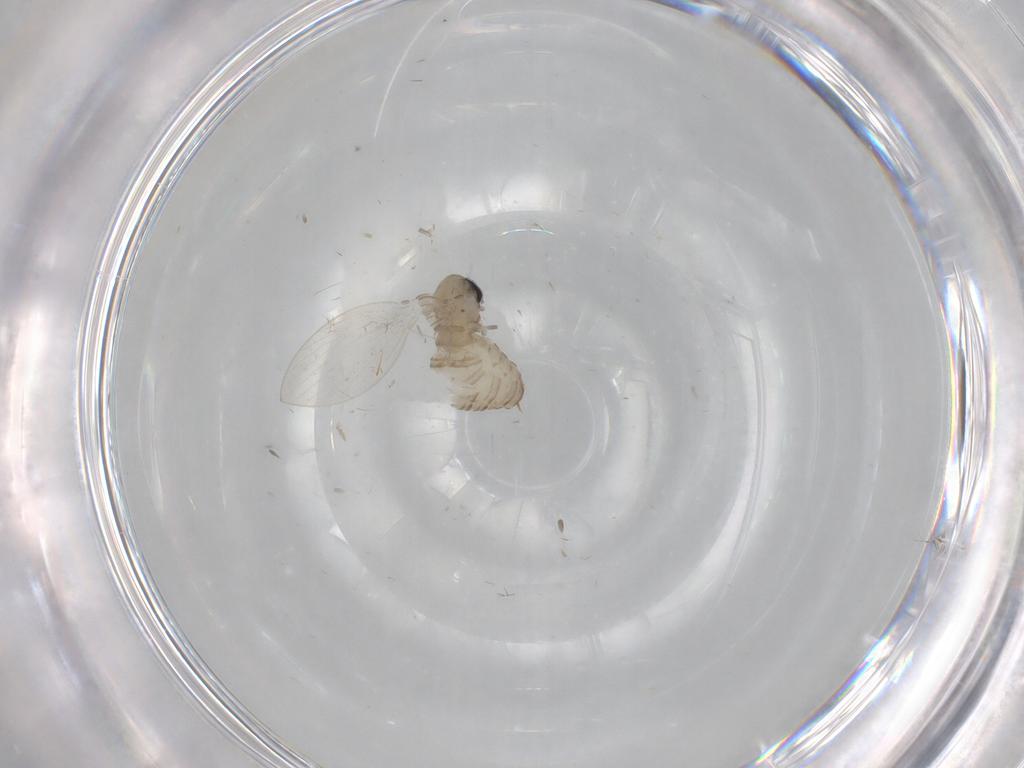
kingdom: Animalia
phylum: Arthropoda
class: Insecta
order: Diptera
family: Psychodidae
